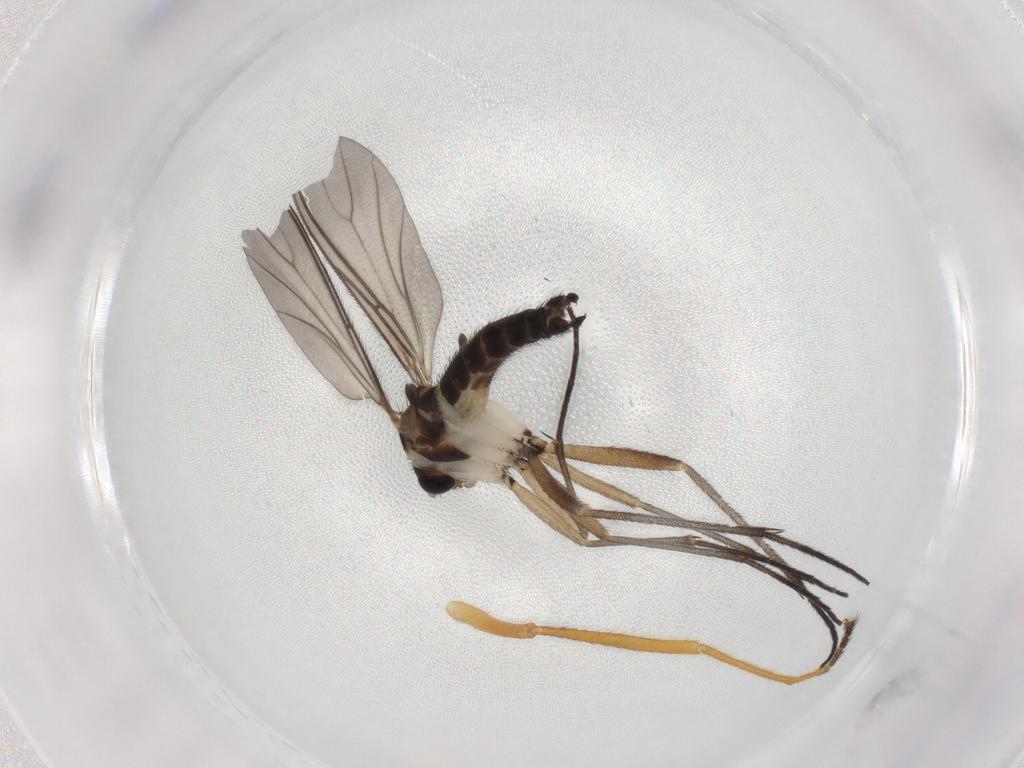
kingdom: Animalia
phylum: Arthropoda
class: Insecta
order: Diptera
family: Stratiomyidae
